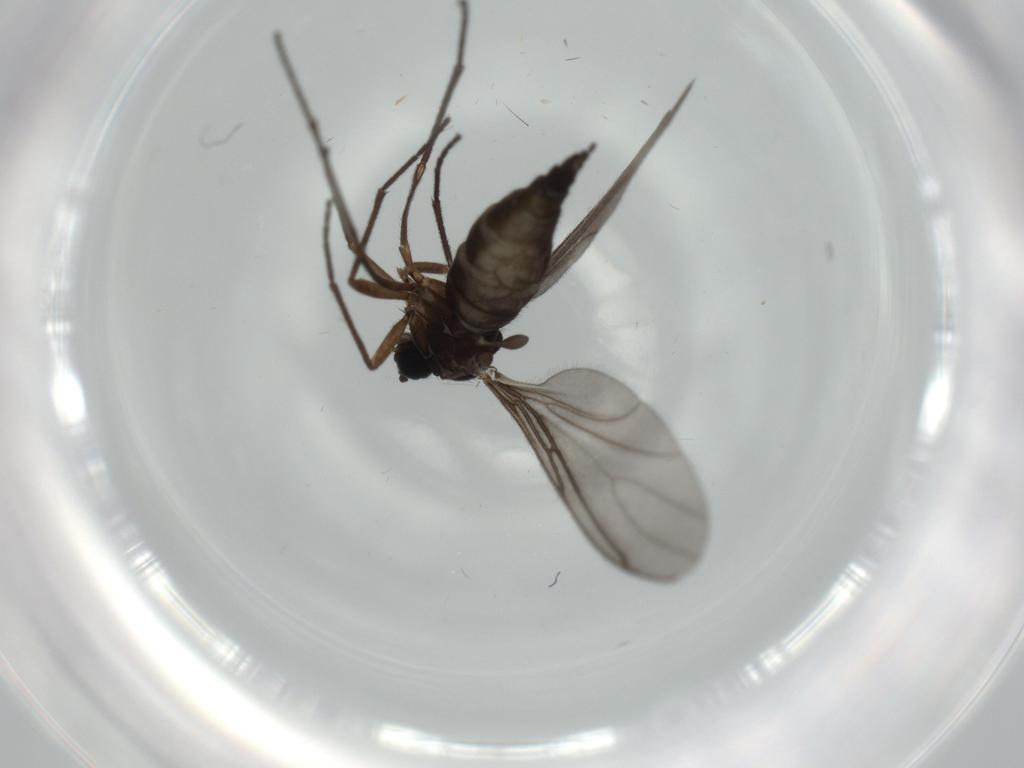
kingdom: Animalia
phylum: Arthropoda
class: Insecta
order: Diptera
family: Sciaridae
